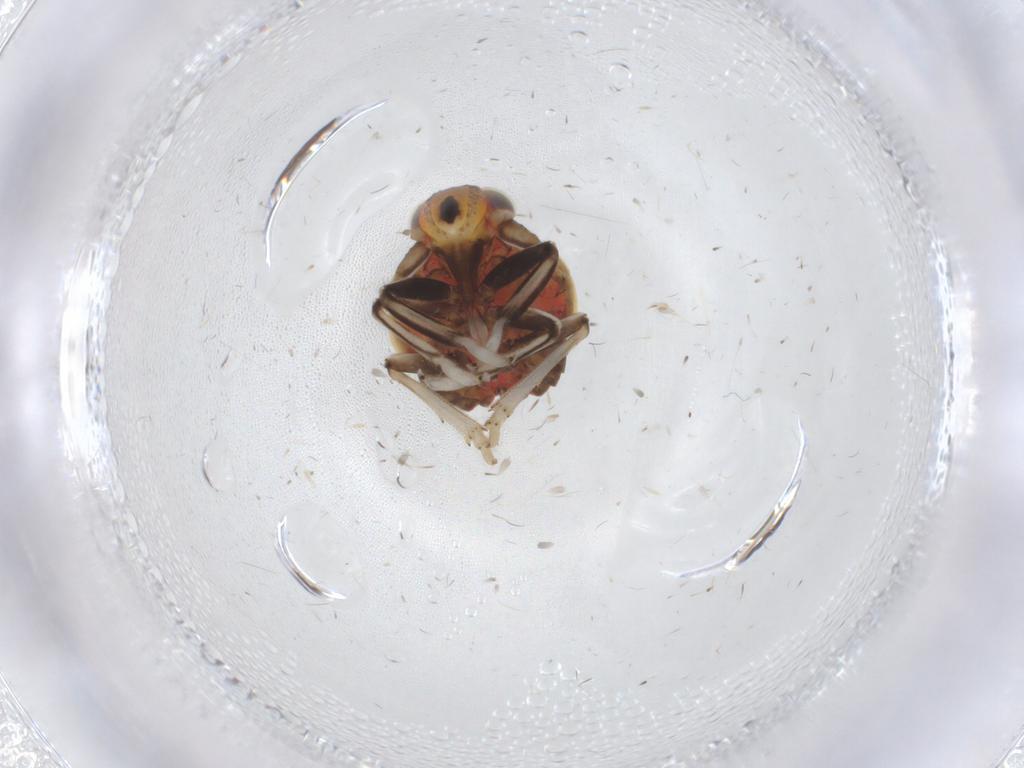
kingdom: Animalia
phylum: Arthropoda
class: Insecta
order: Hemiptera
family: Issidae
